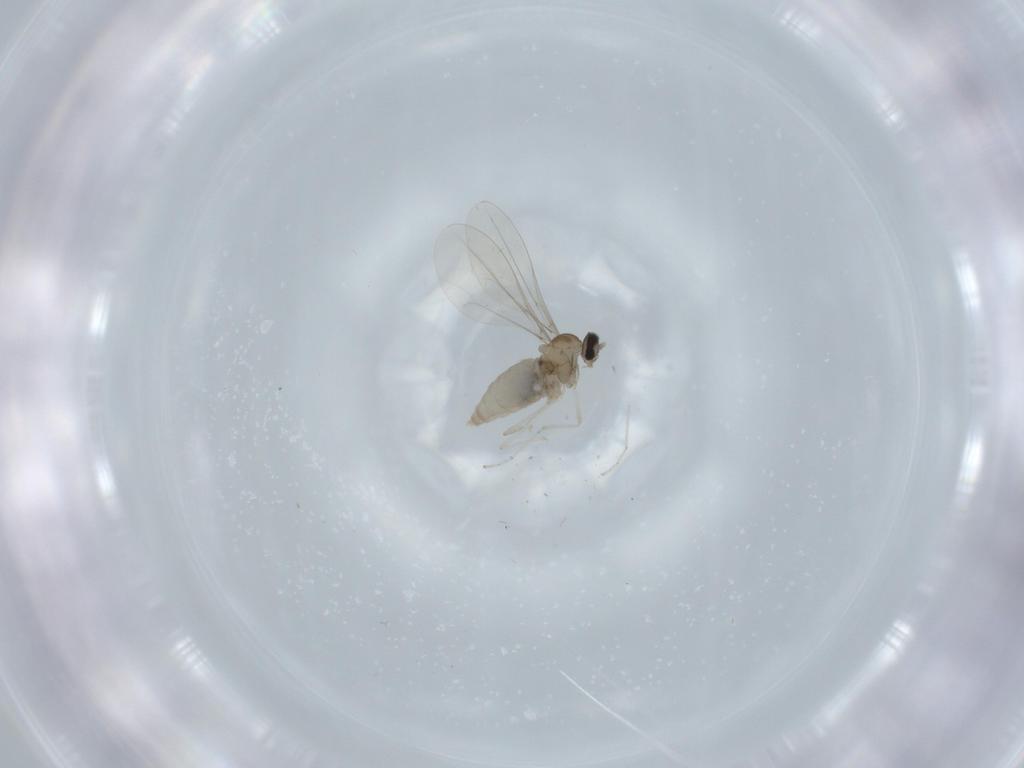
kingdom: Animalia
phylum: Arthropoda
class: Insecta
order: Diptera
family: Cecidomyiidae
